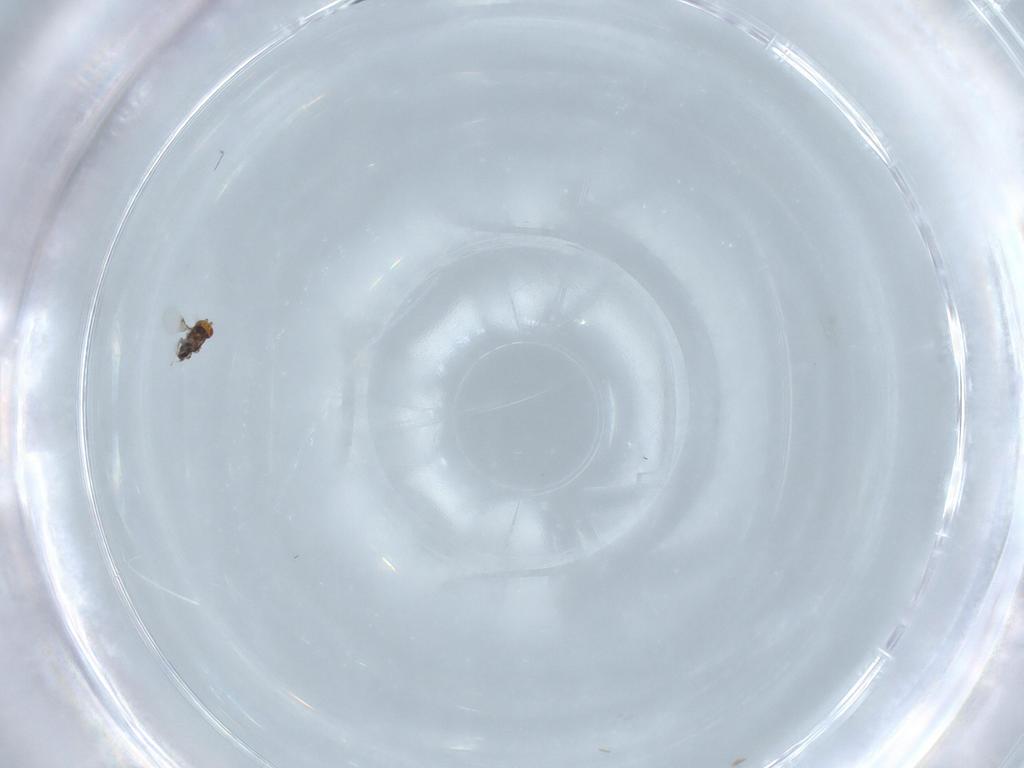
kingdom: Animalia
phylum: Arthropoda
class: Insecta
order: Hymenoptera
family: Trichogrammatidae
